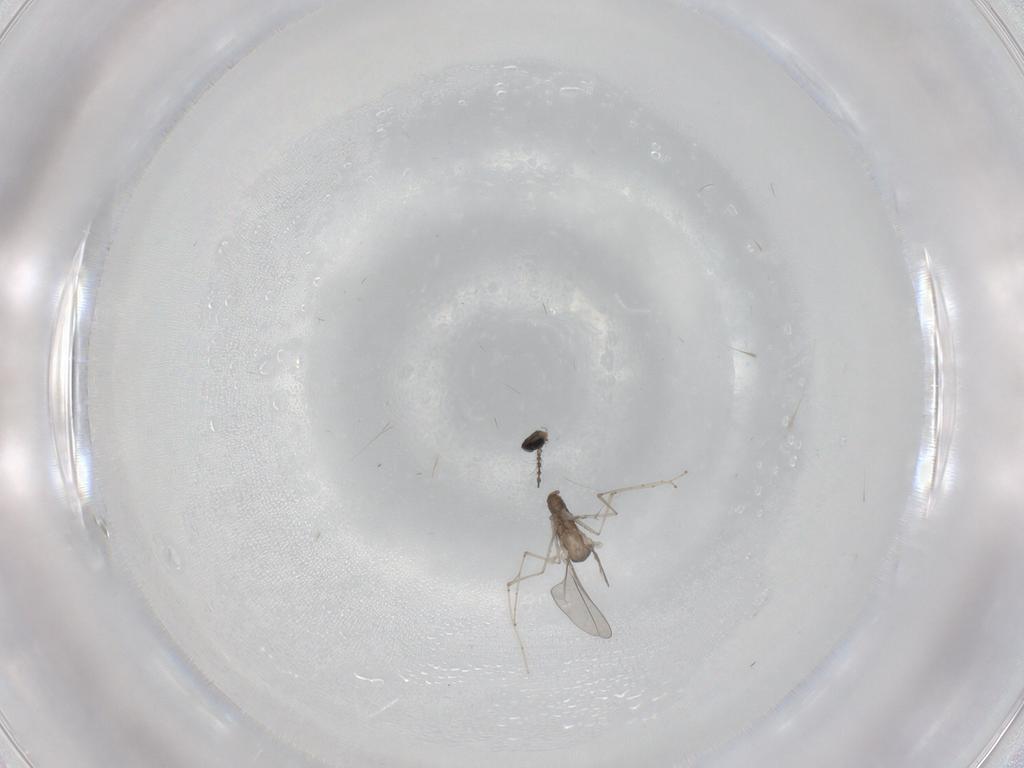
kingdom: Animalia
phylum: Arthropoda
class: Insecta
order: Diptera
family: Cecidomyiidae
